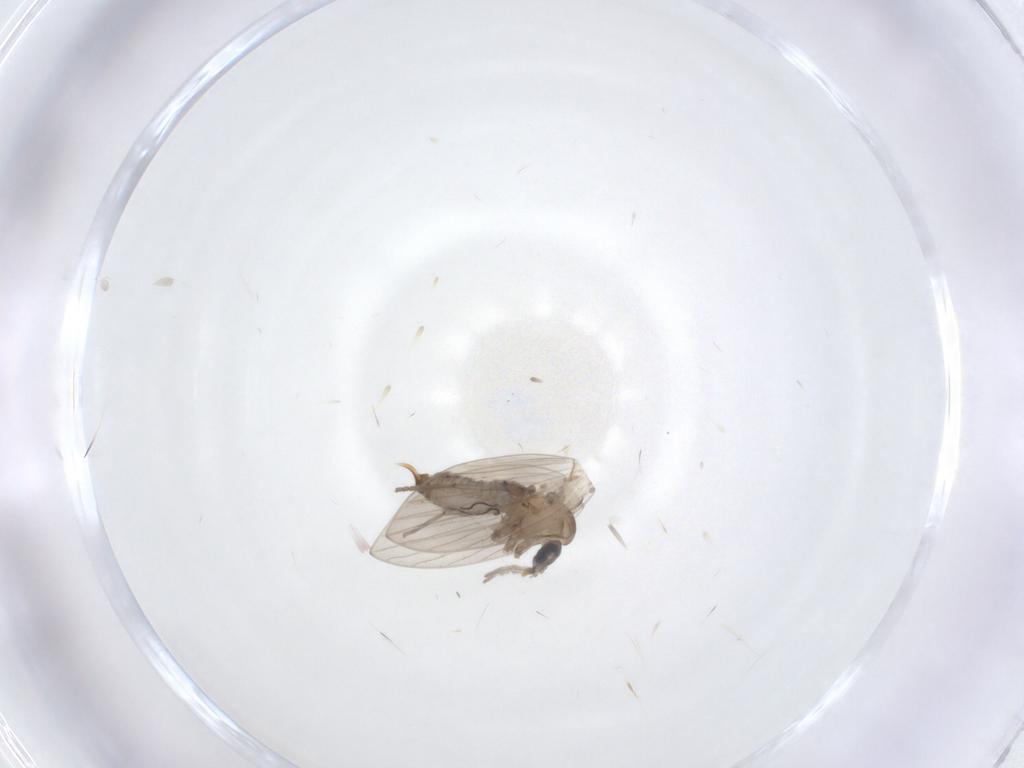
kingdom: Animalia
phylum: Arthropoda
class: Insecta
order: Diptera
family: Psychodidae
